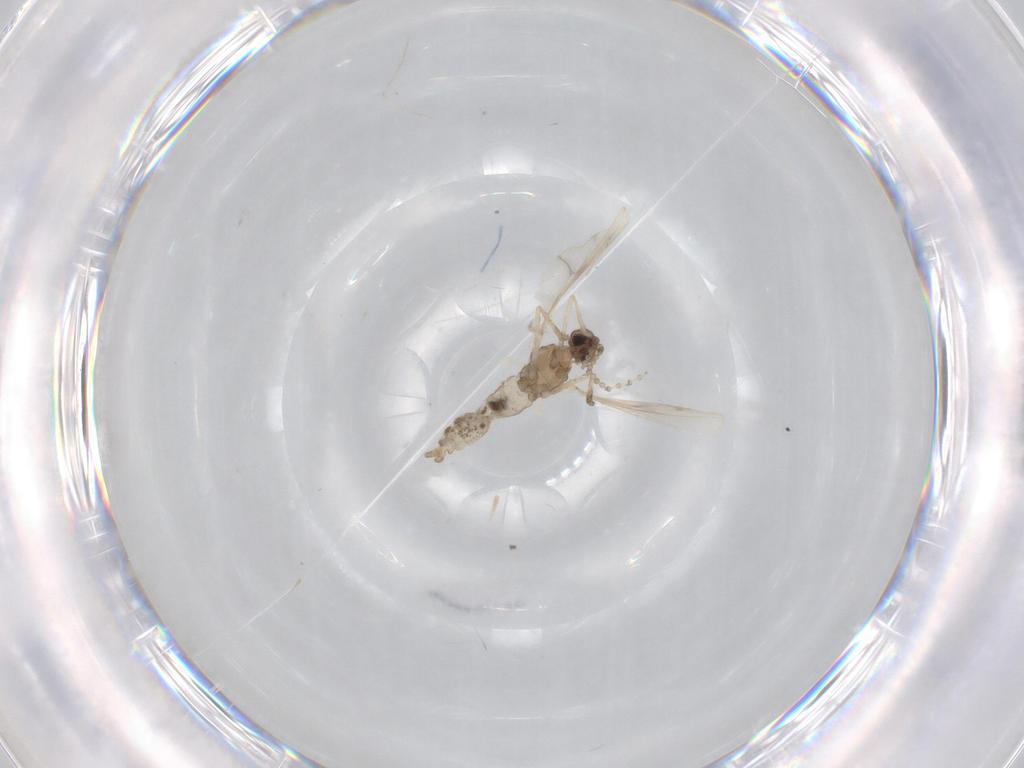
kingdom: Animalia
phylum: Arthropoda
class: Insecta
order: Diptera
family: Cecidomyiidae
